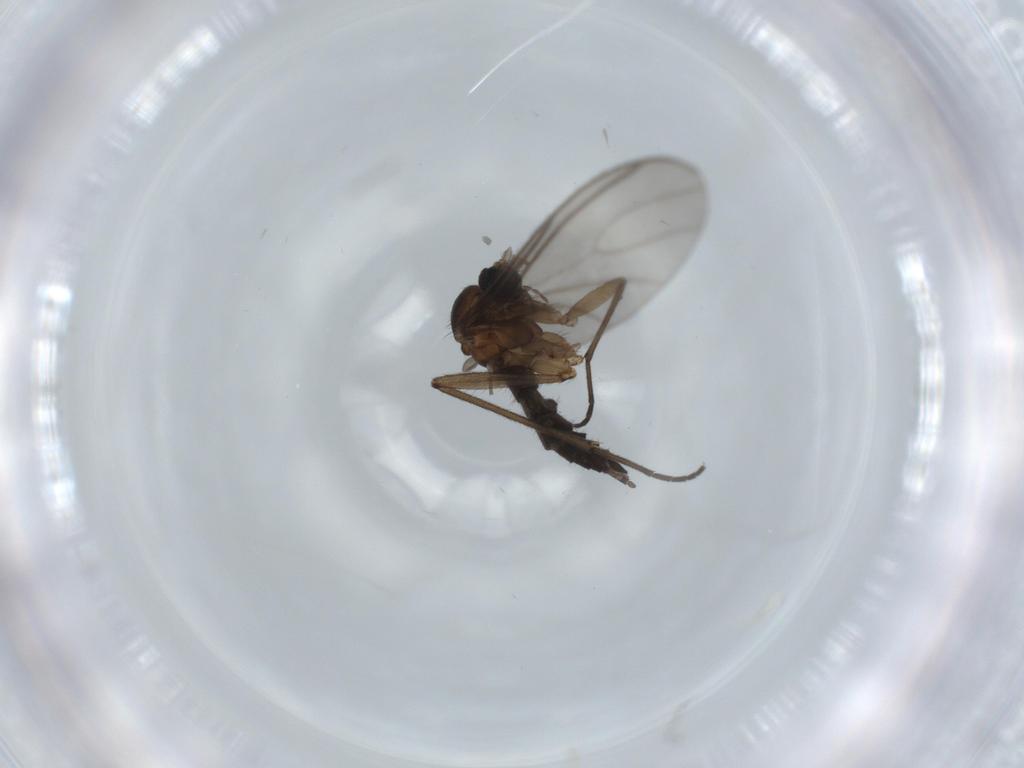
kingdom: Animalia
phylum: Arthropoda
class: Insecta
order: Diptera
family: Sciaridae
